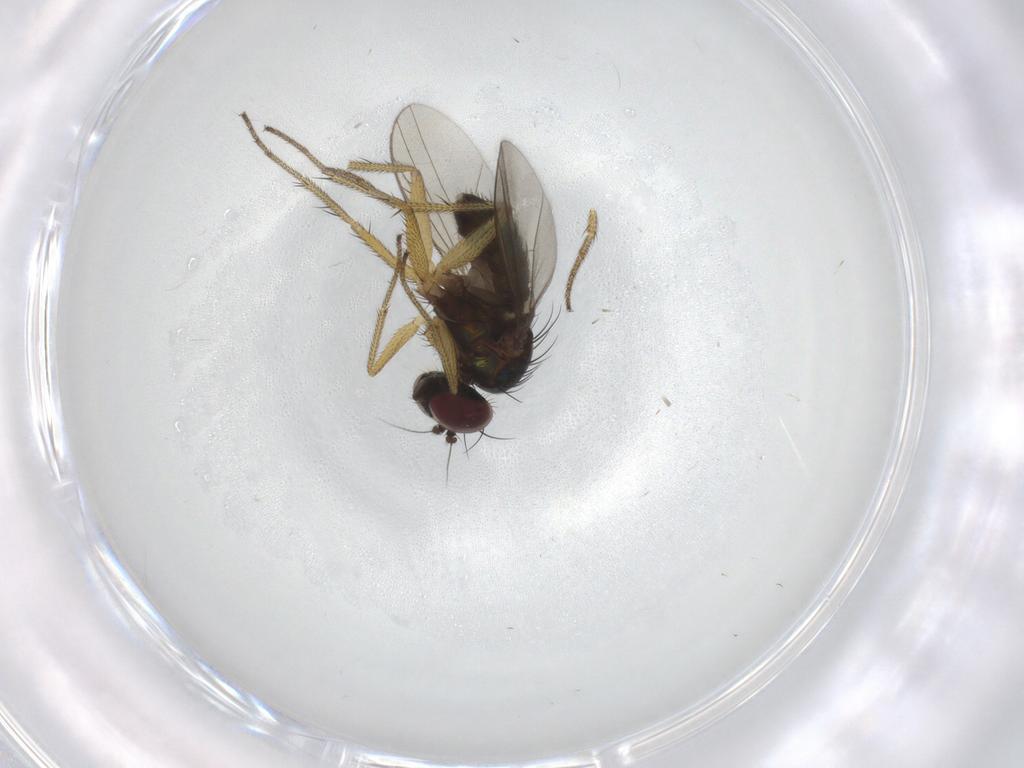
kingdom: Animalia
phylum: Arthropoda
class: Insecta
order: Diptera
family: Dolichopodidae
